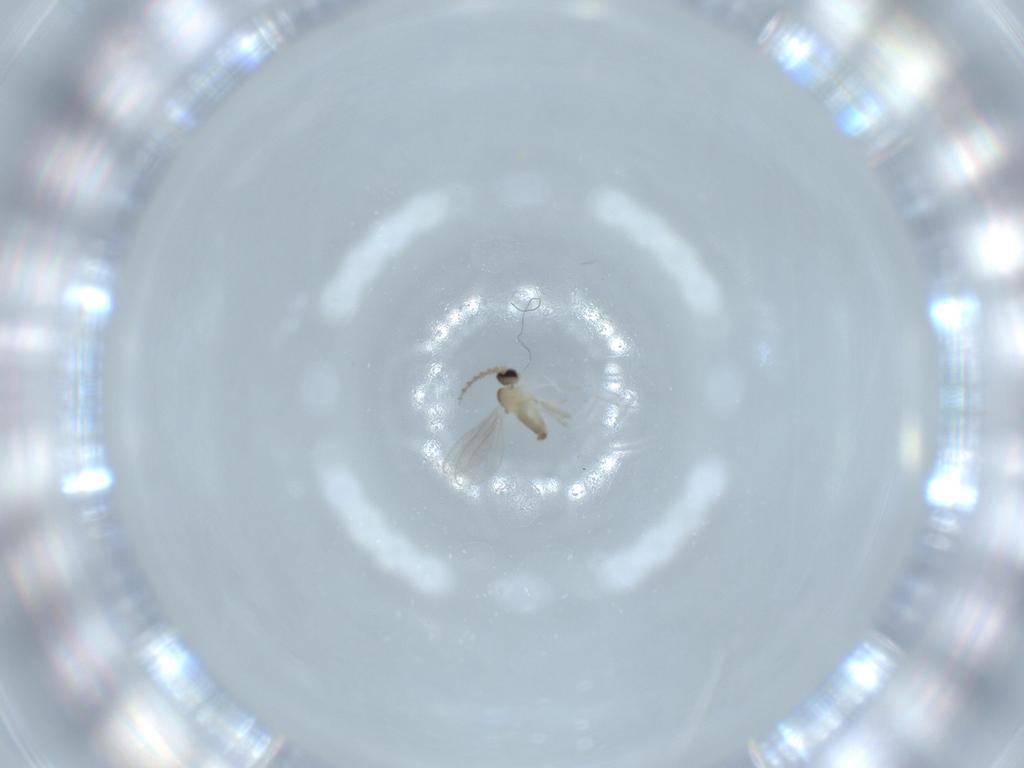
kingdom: Animalia
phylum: Arthropoda
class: Insecta
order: Diptera
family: Cecidomyiidae
